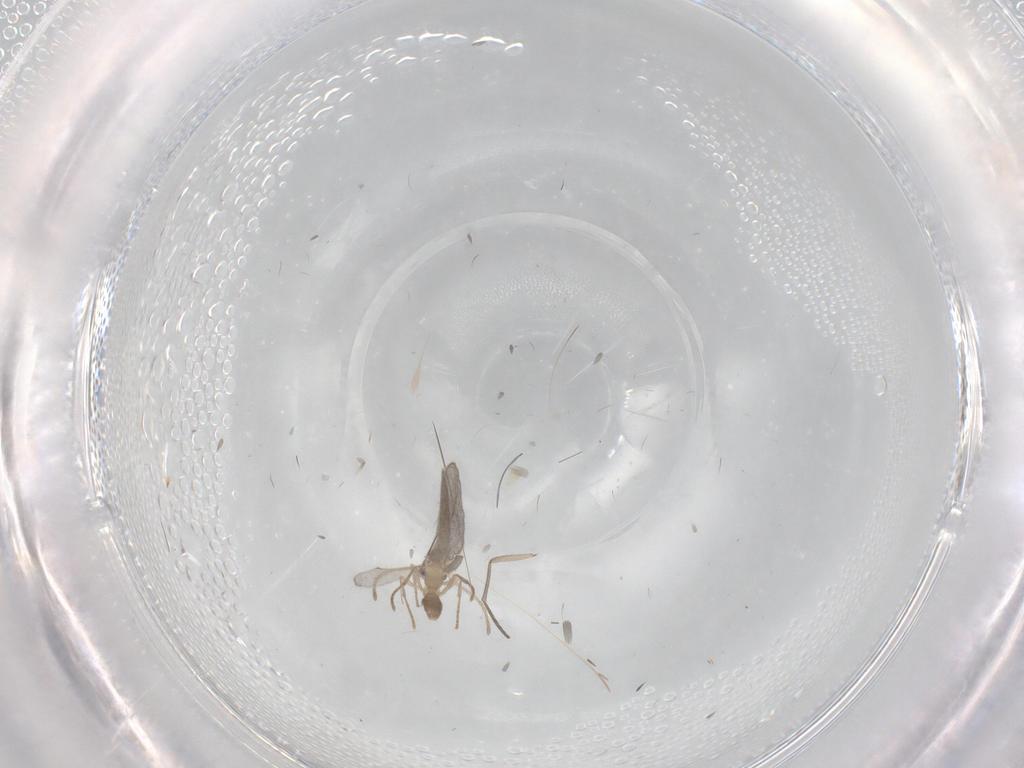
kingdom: Animalia
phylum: Arthropoda
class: Insecta
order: Hymenoptera
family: Formicidae
